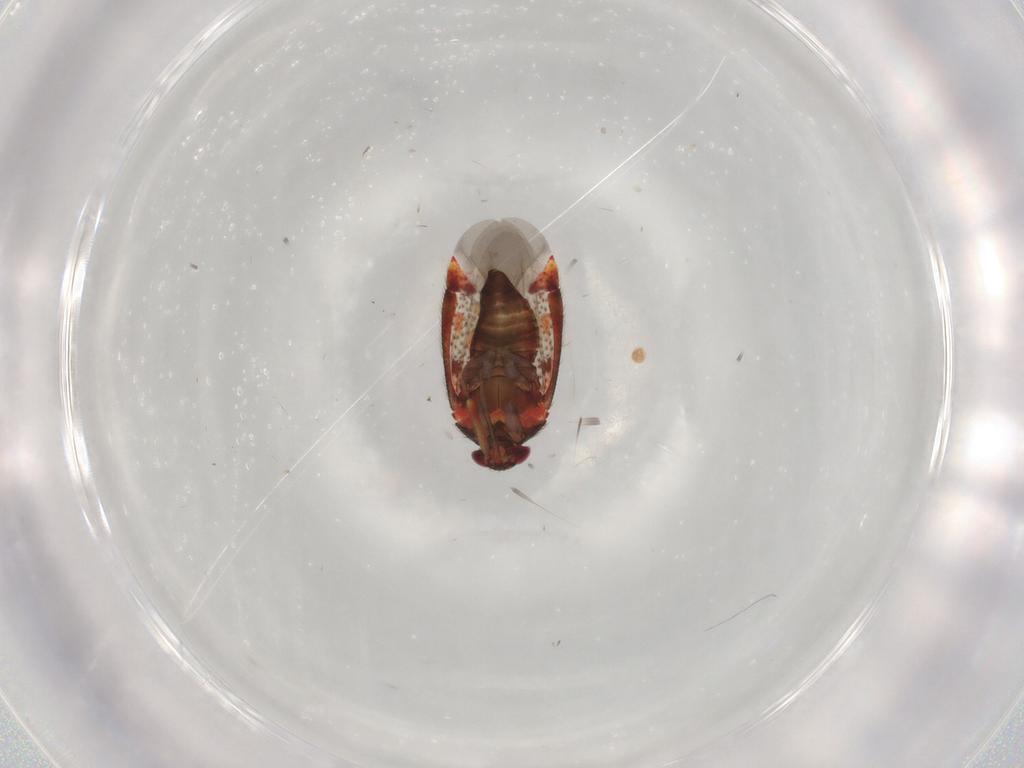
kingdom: Animalia
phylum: Arthropoda
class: Insecta
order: Hemiptera
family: Miridae
